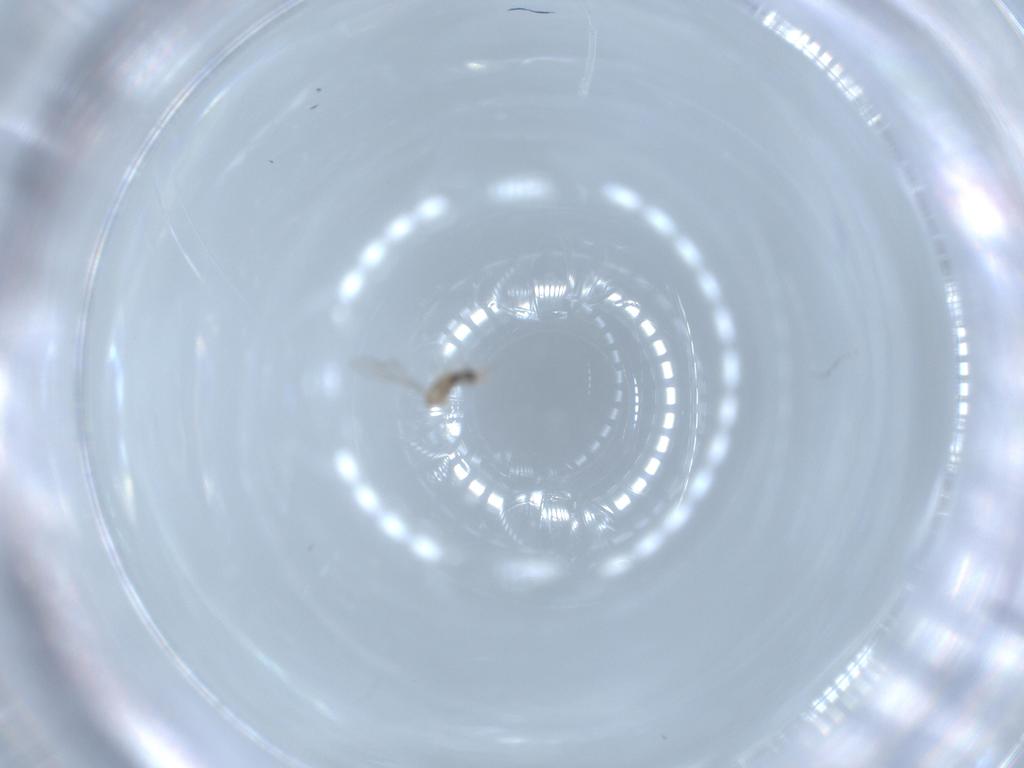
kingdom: Animalia
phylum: Arthropoda
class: Insecta
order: Diptera
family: Cecidomyiidae
